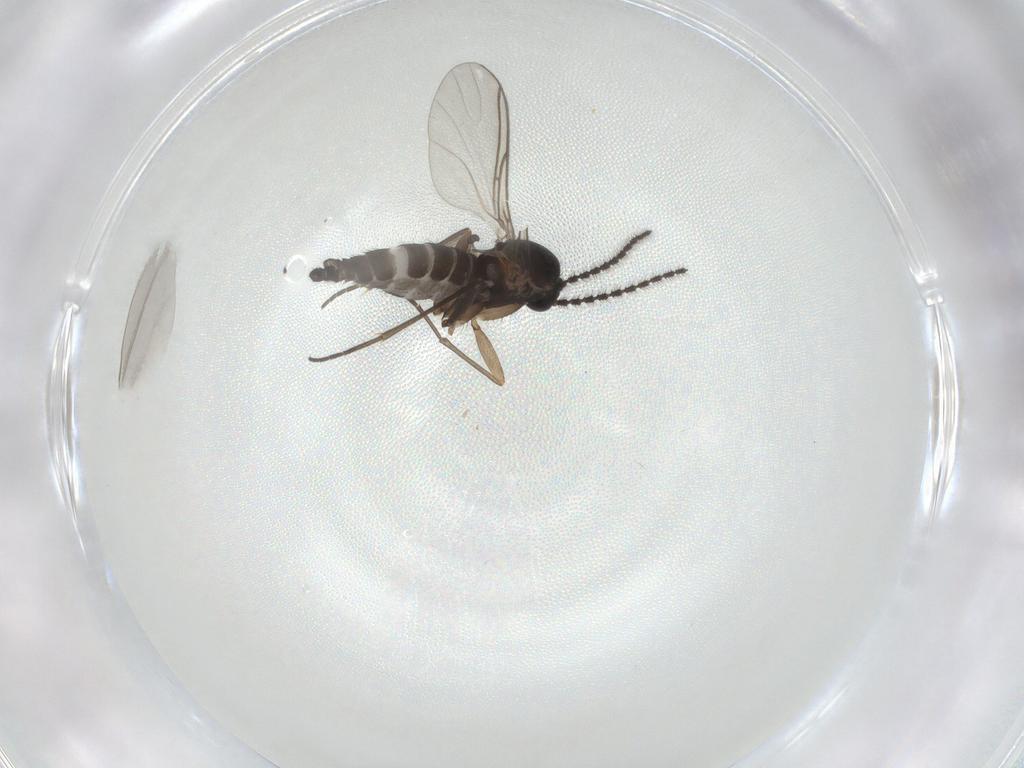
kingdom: Animalia
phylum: Arthropoda
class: Insecta
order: Diptera
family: Sciaridae
